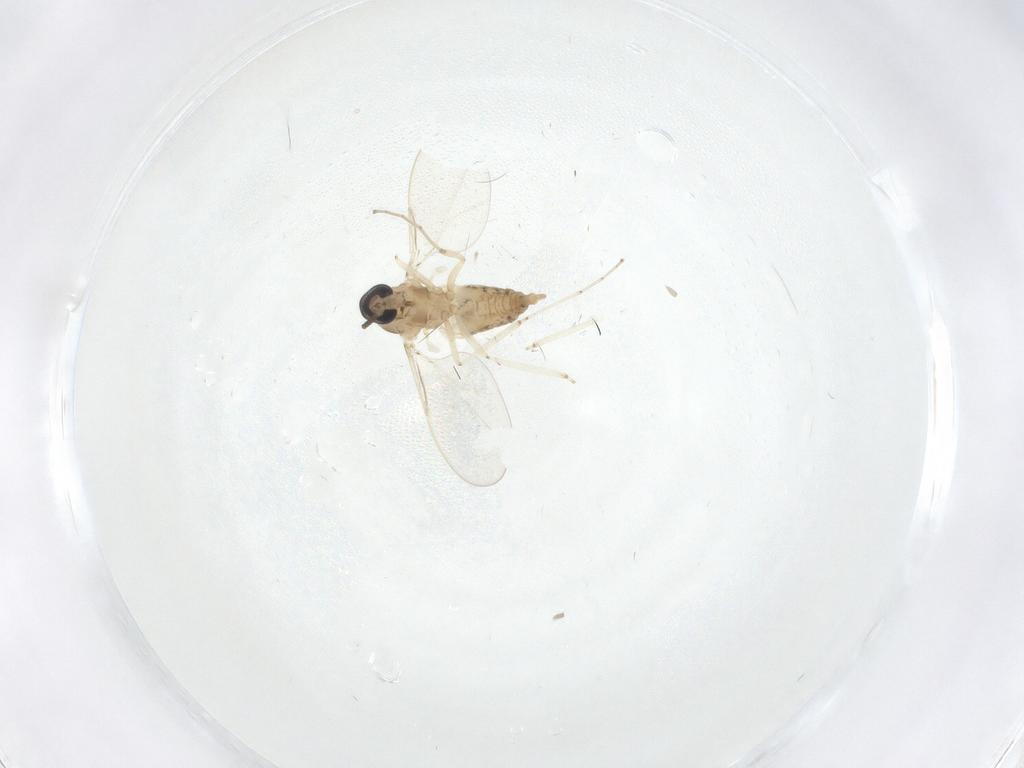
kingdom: Animalia
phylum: Arthropoda
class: Insecta
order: Diptera
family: Cecidomyiidae
